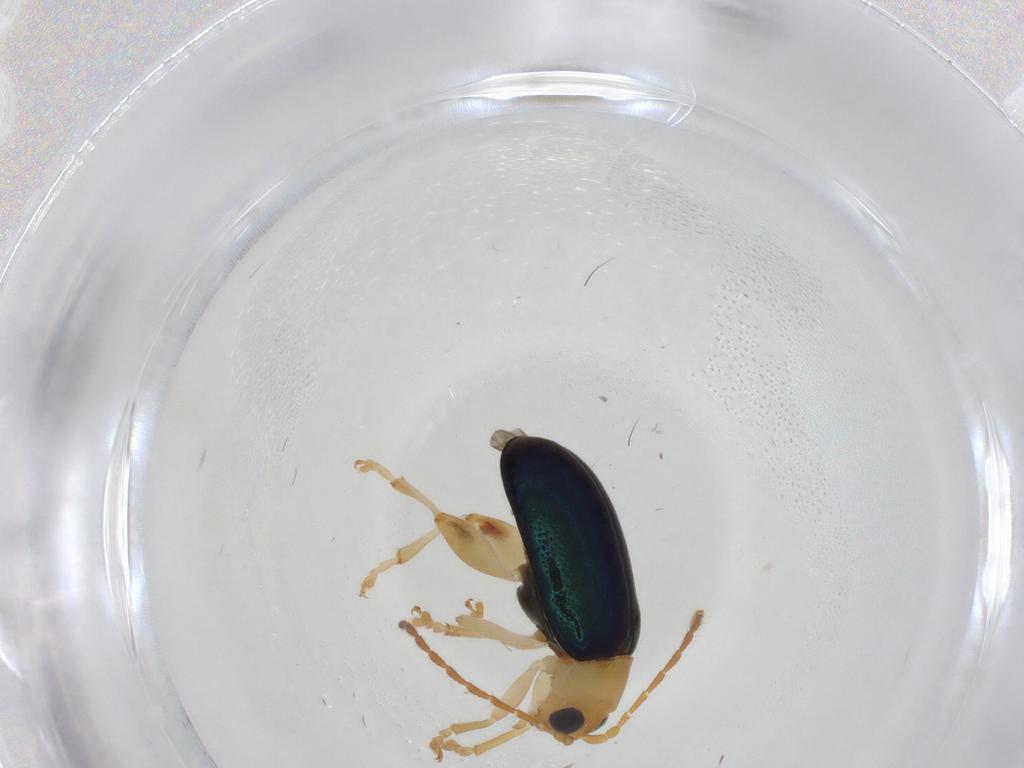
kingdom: Animalia
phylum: Arthropoda
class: Insecta
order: Coleoptera
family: Chrysomelidae
